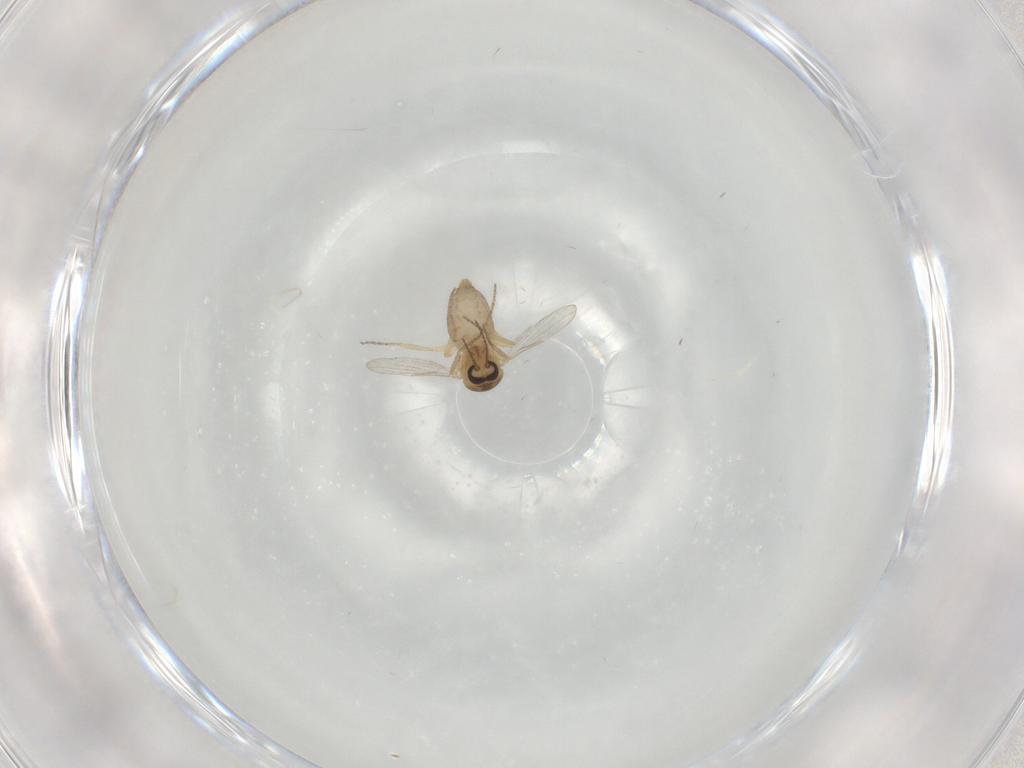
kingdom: Animalia
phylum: Arthropoda
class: Insecta
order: Diptera
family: Ceratopogonidae
